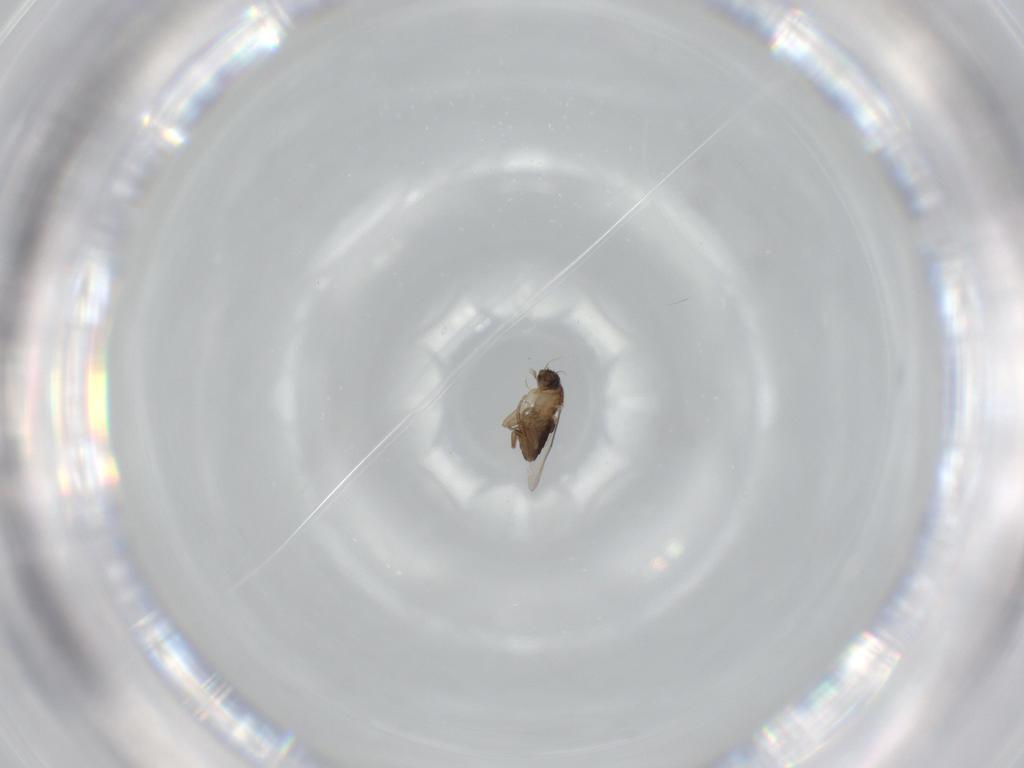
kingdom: Animalia
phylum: Arthropoda
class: Insecta
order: Diptera
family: Phoridae
